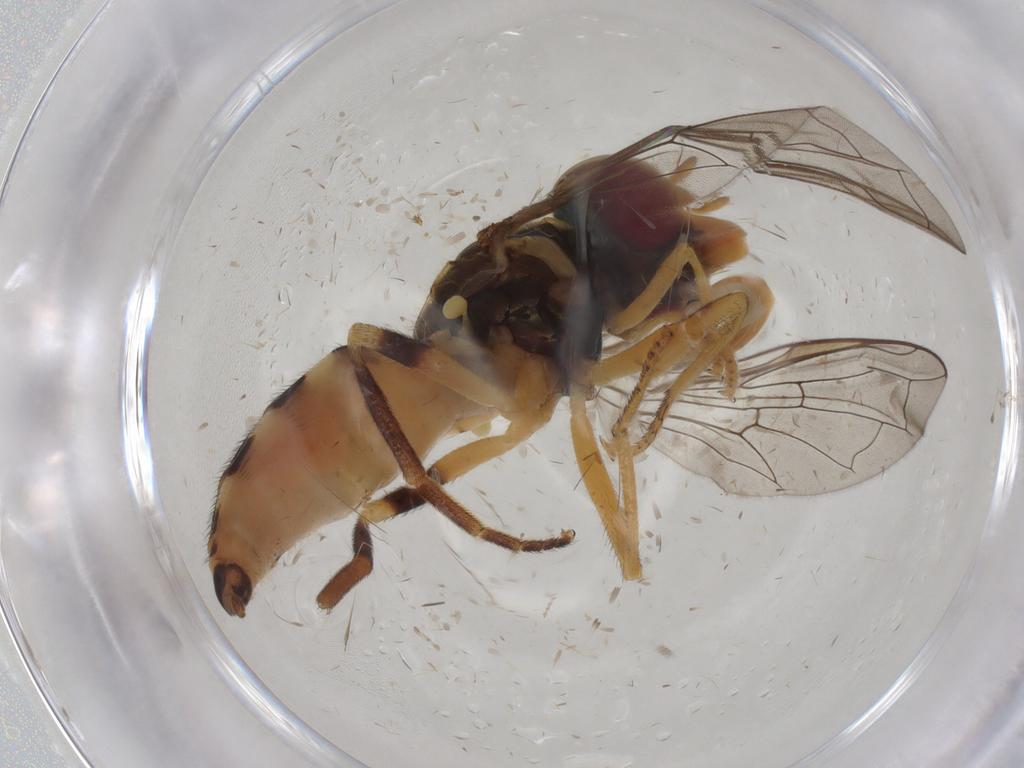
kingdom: Animalia
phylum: Arthropoda
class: Insecta
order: Diptera
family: Syrphidae
